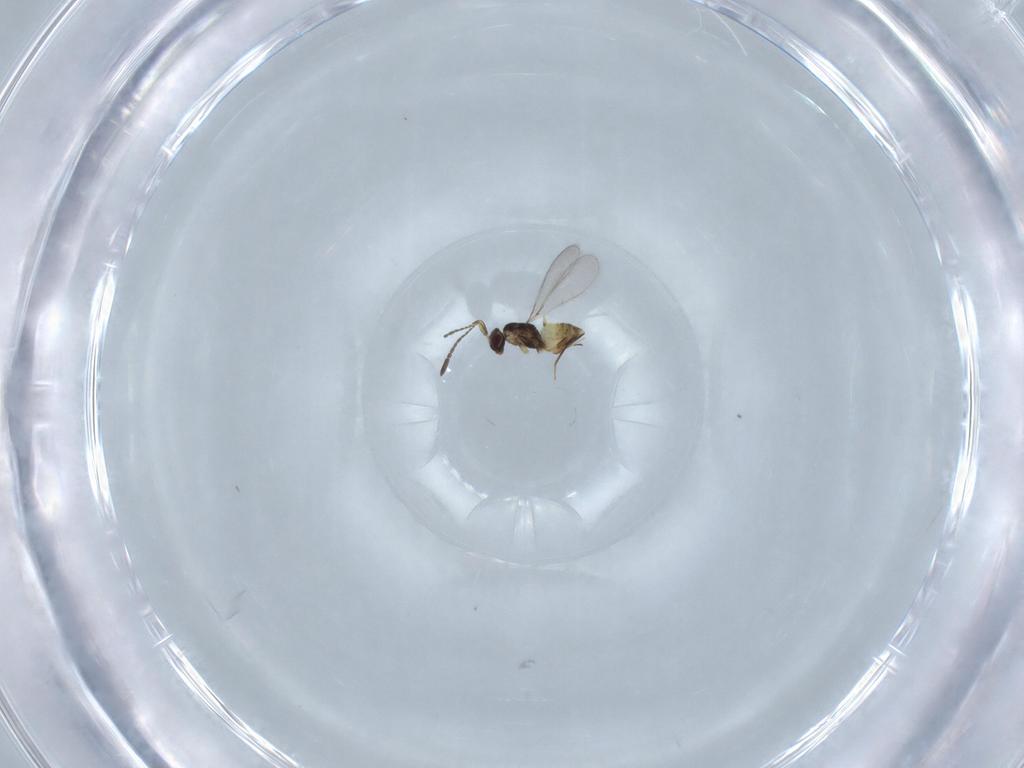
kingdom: Animalia
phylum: Arthropoda
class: Insecta
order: Hymenoptera
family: Mymaridae
